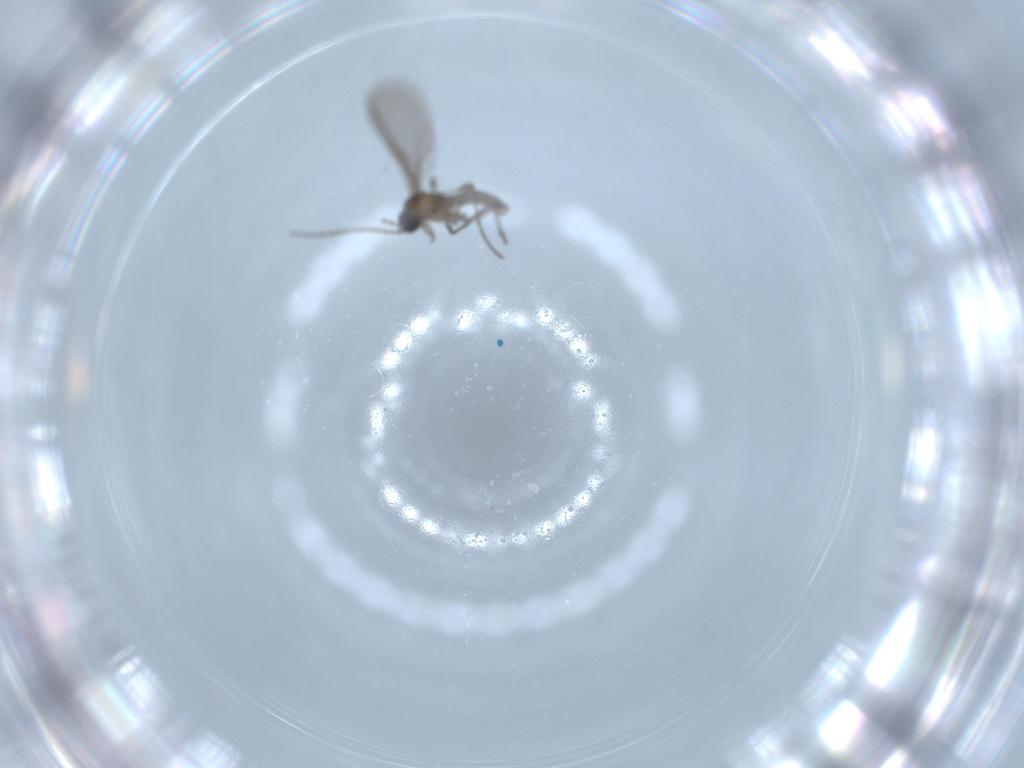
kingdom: Animalia
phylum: Arthropoda
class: Insecta
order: Diptera
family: Sciaridae
